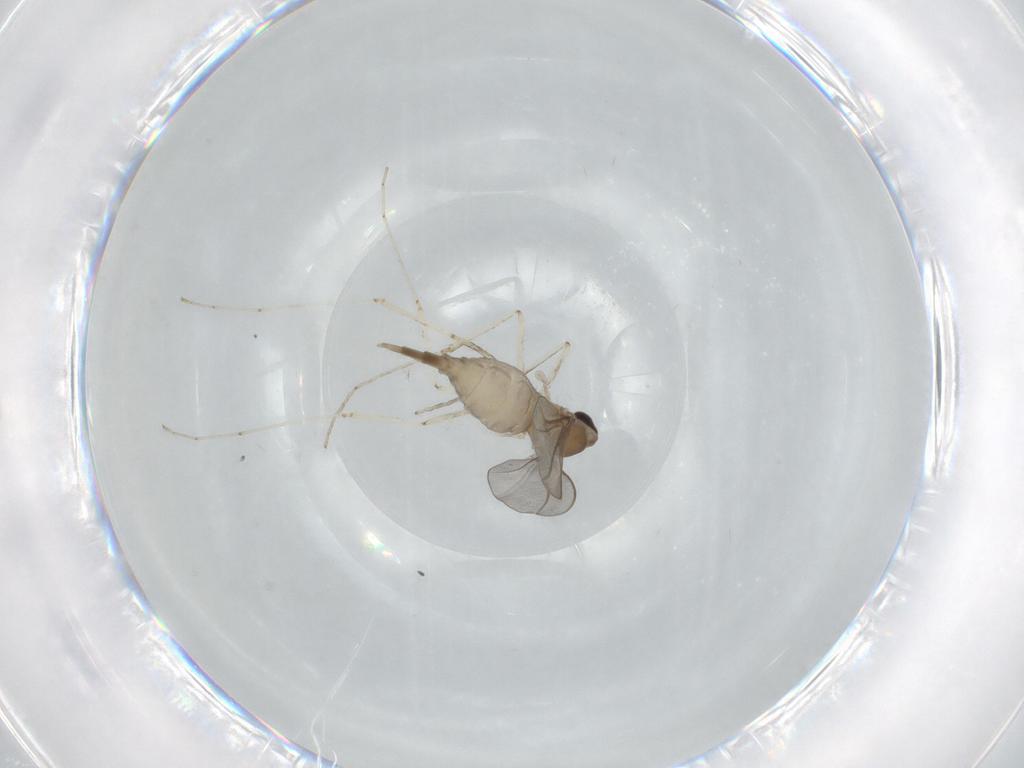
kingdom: Animalia
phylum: Arthropoda
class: Insecta
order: Diptera
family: Cecidomyiidae
